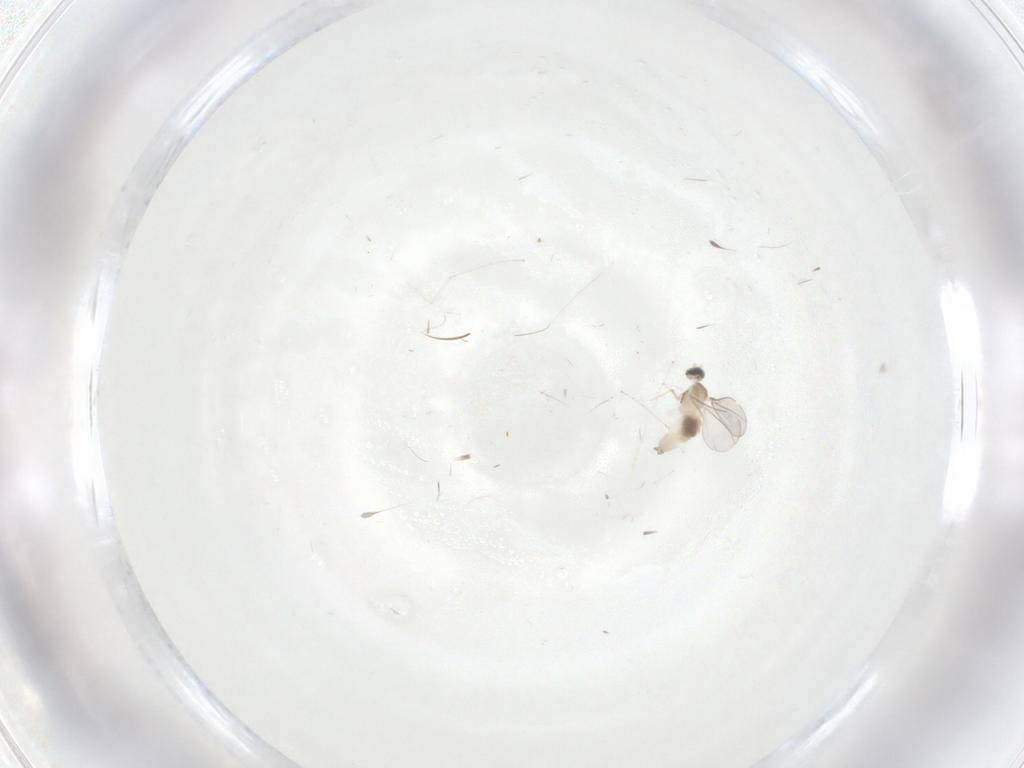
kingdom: Animalia
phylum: Arthropoda
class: Insecta
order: Diptera
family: Cecidomyiidae
